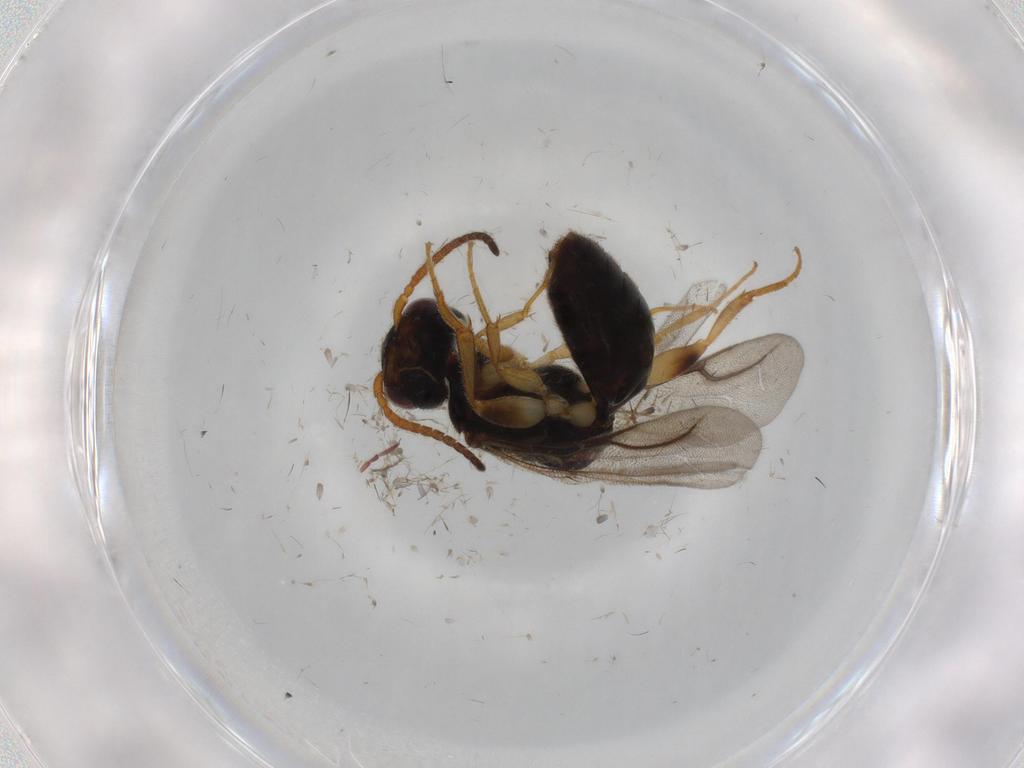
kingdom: Animalia
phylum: Arthropoda
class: Insecta
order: Hymenoptera
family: Bethylidae
